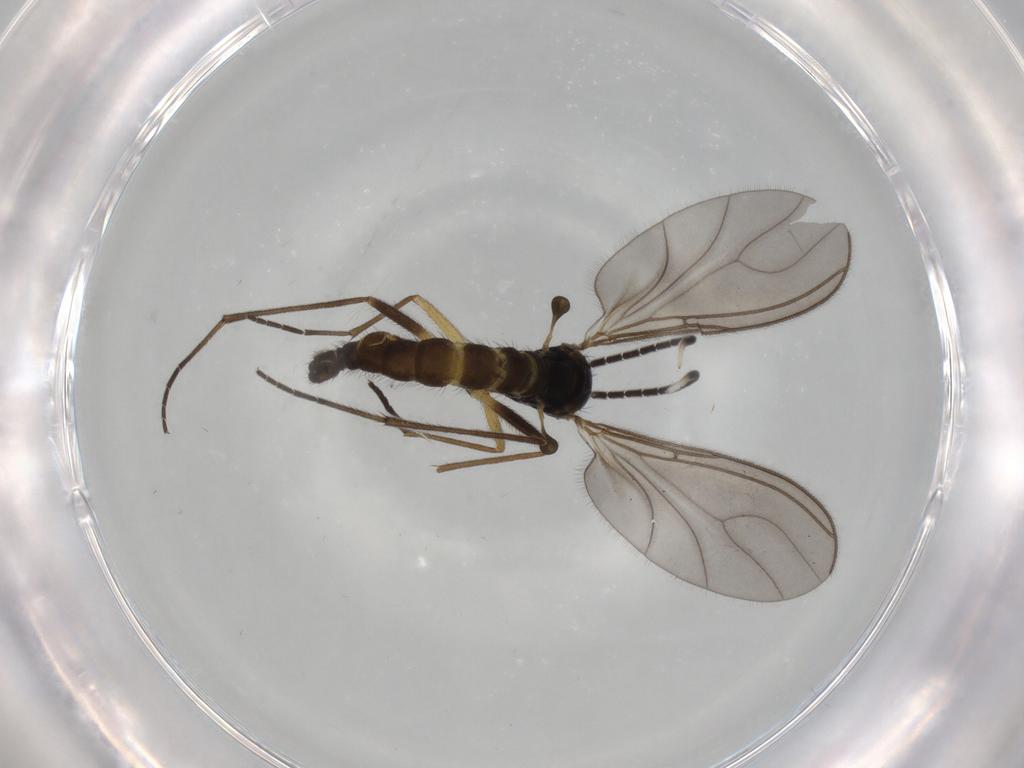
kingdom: Animalia
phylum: Arthropoda
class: Insecta
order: Diptera
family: Sciaridae
